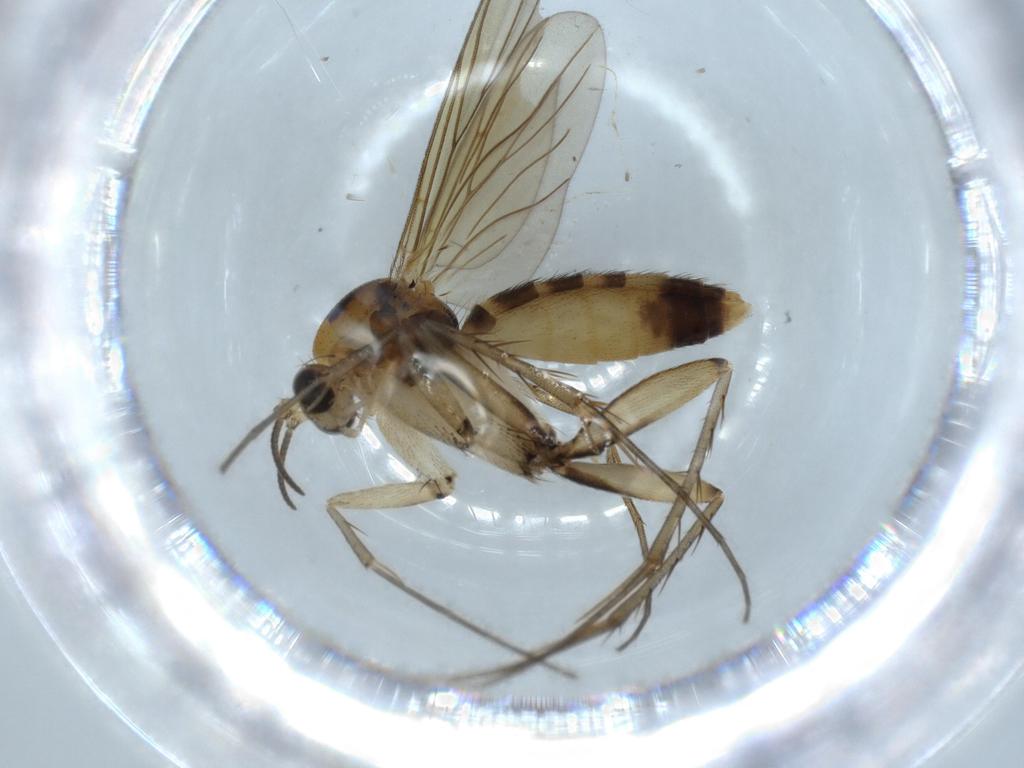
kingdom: Animalia
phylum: Arthropoda
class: Insecta
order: Diptera
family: Mycetophilidae
